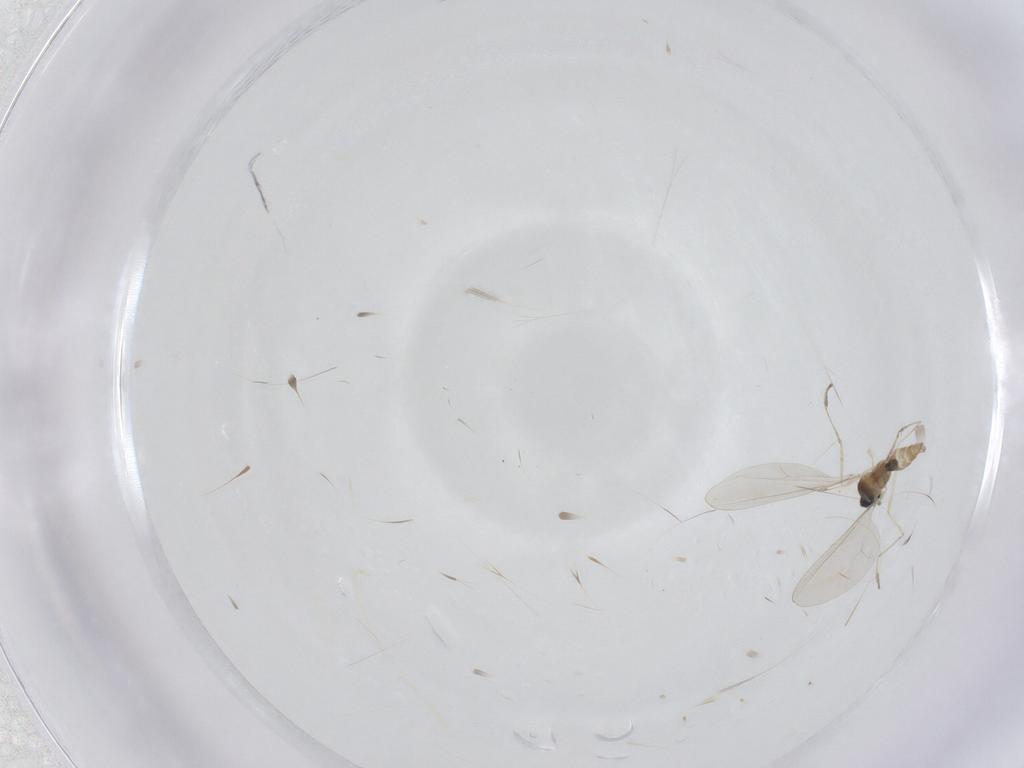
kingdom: Animalia
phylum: Arthropoda
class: Insecta
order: Diptera
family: Cecidomyiidae
